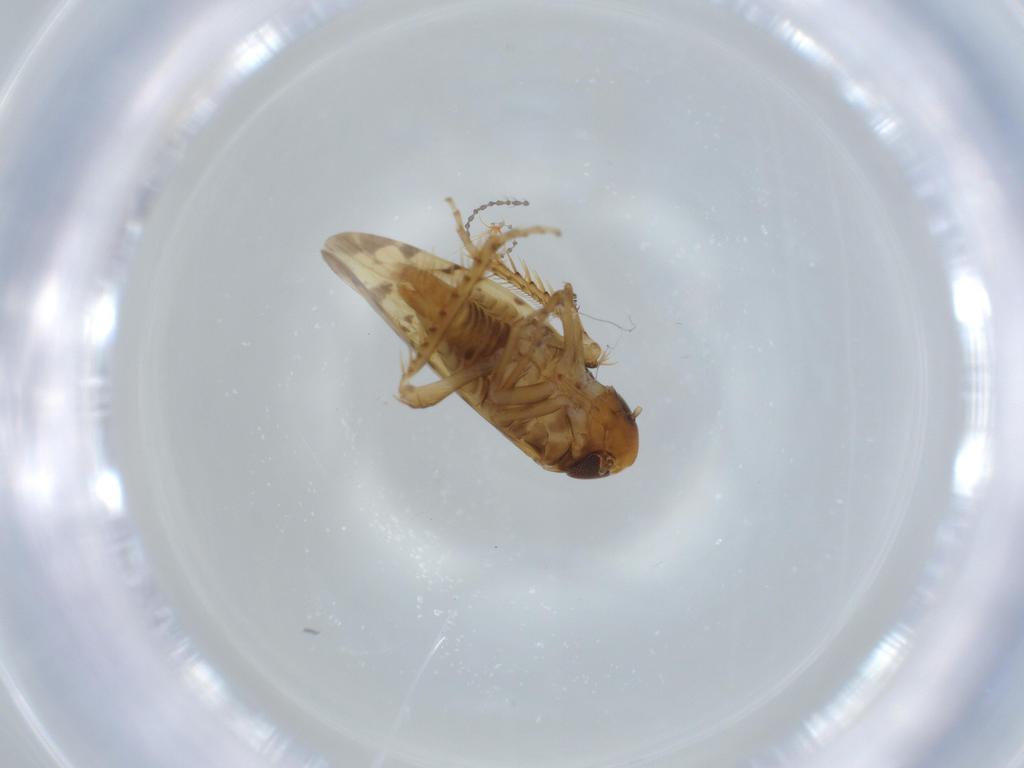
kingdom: Animalia
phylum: Arthropoda
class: Insecta
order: Hemiptera
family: Cicadellidae
